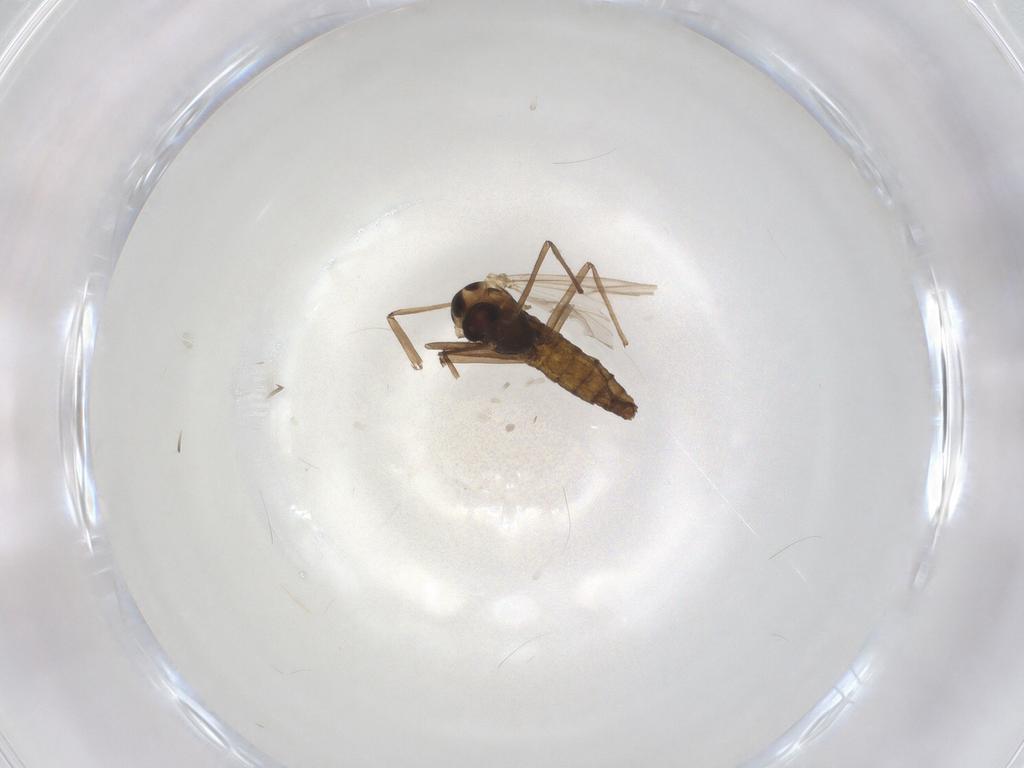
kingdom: Animalia
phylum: Arthropoda
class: Insecta
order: Diptera
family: Chironomidae
